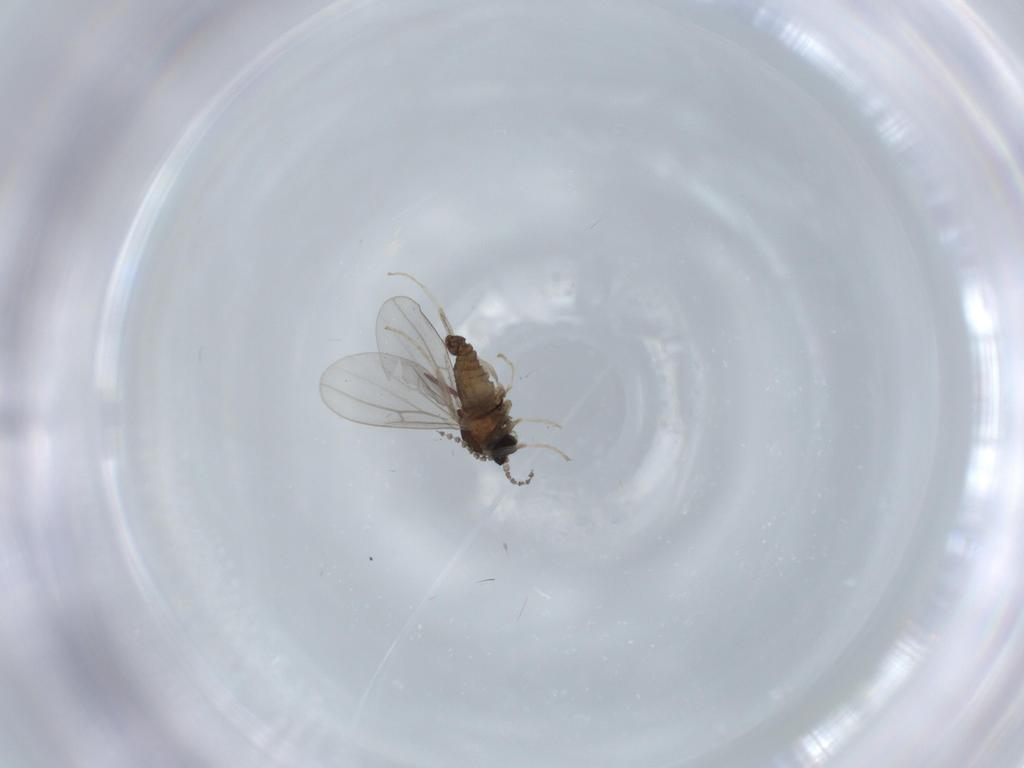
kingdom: Animalia
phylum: Arthropoda
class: Insecta
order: Diptera
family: Cecidomyiidae
